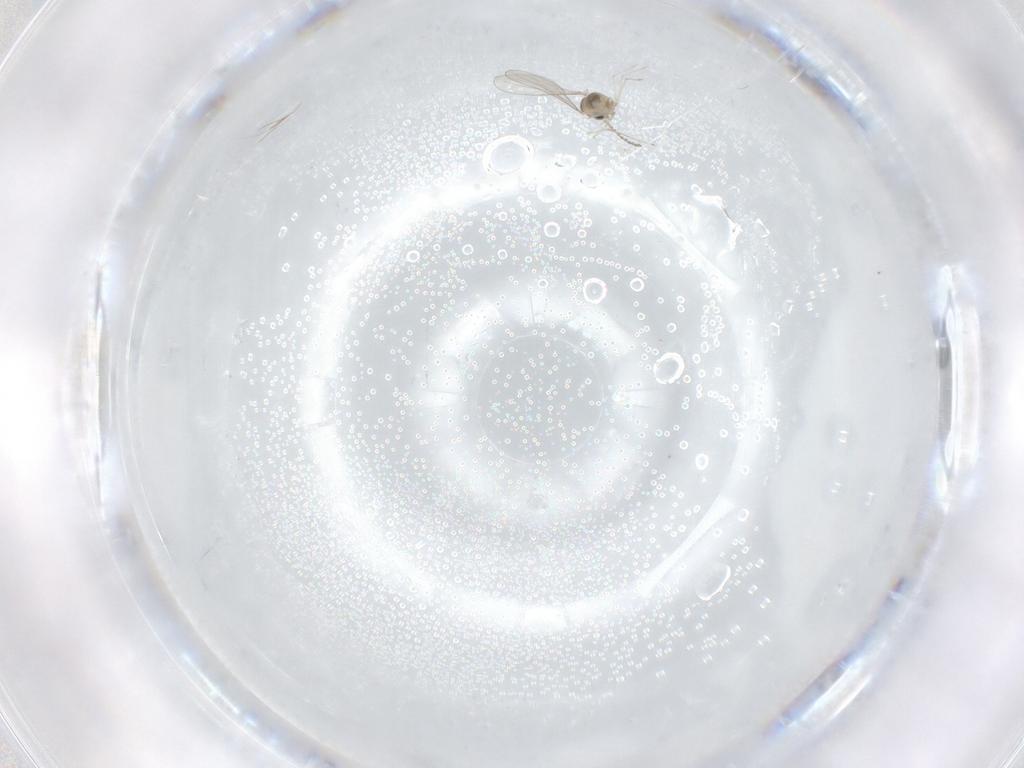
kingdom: Animalia
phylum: Arthropoda
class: Insecta
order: Diptera
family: Cecidomyiidae
